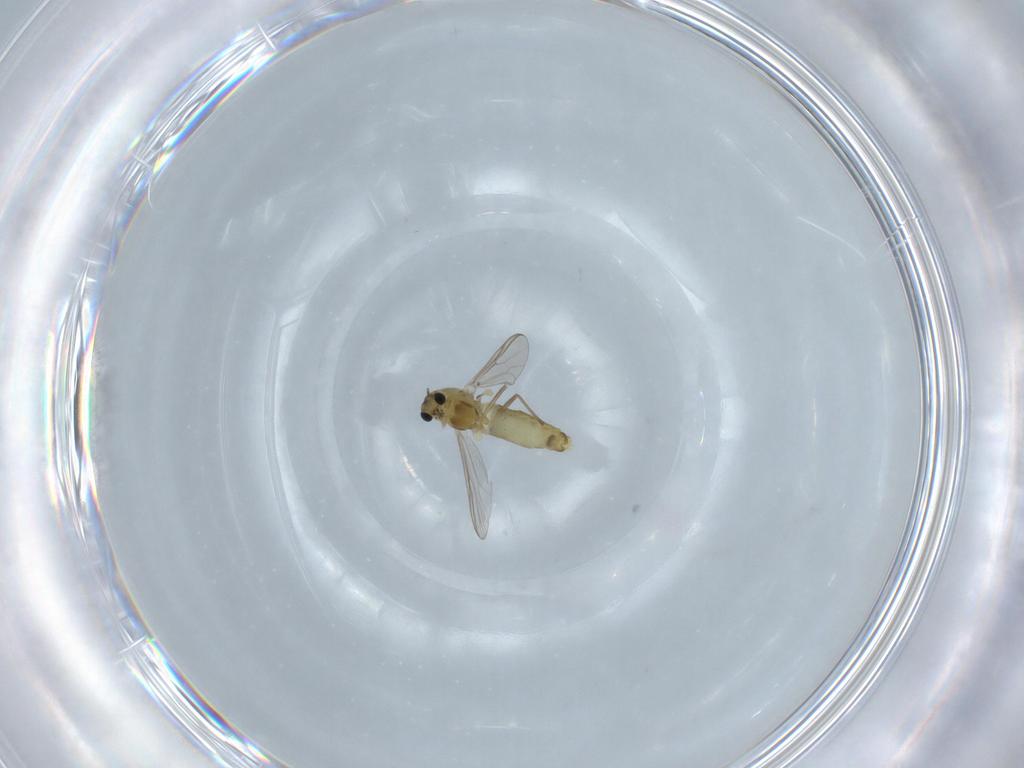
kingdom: Animalia
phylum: Arthropoda
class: Insecta
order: Diptera
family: Chironomidae
